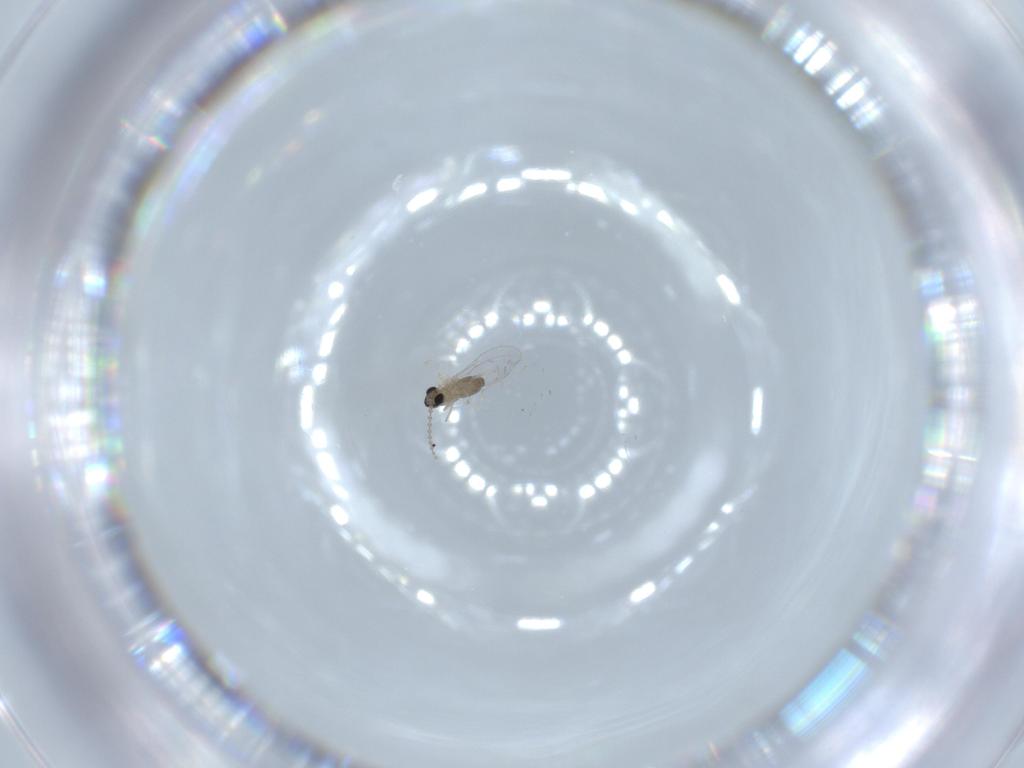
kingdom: Animalia
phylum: Arthropoda
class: Insecta
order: Diptera
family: Cecidomyiidae
